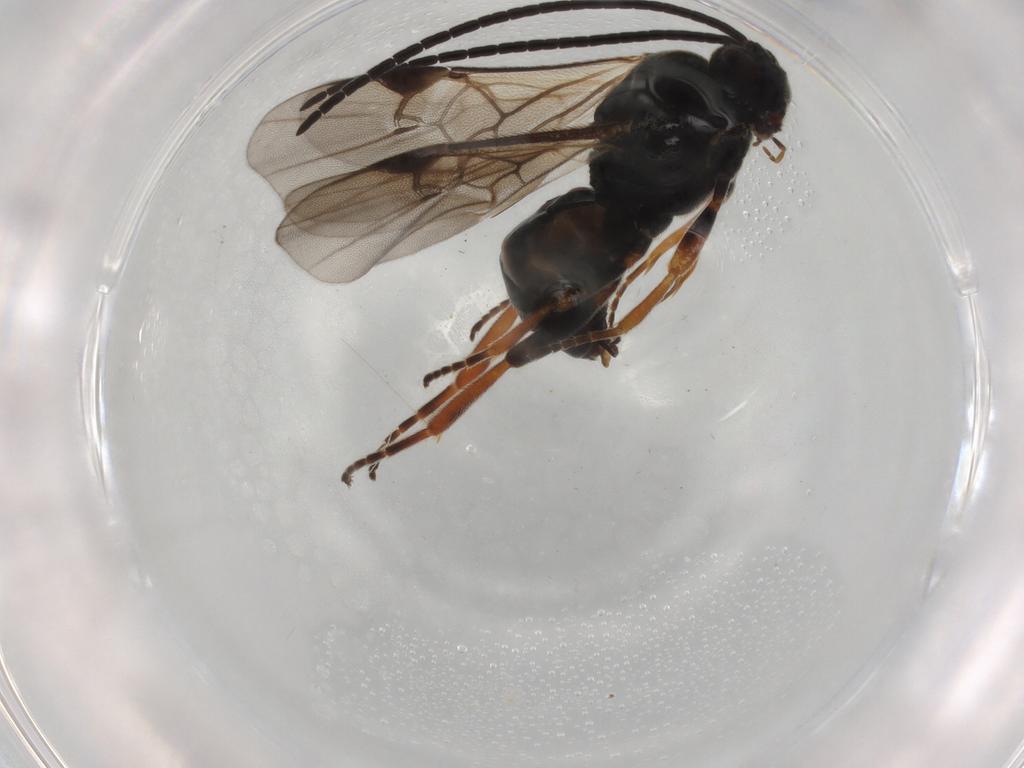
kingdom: Animalia
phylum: Arthropoda
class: Insecta
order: Hymenoptera
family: Braconidae
